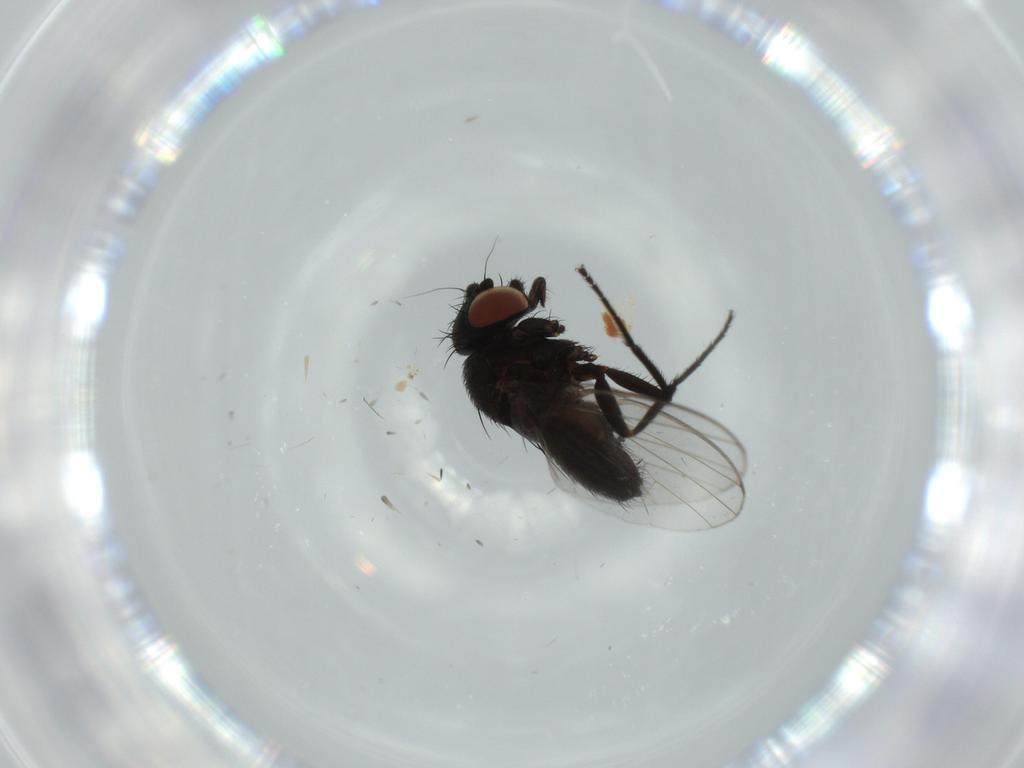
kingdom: Animalia
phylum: Arthropoda
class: Insecta
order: Diptera
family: Milichiidae
